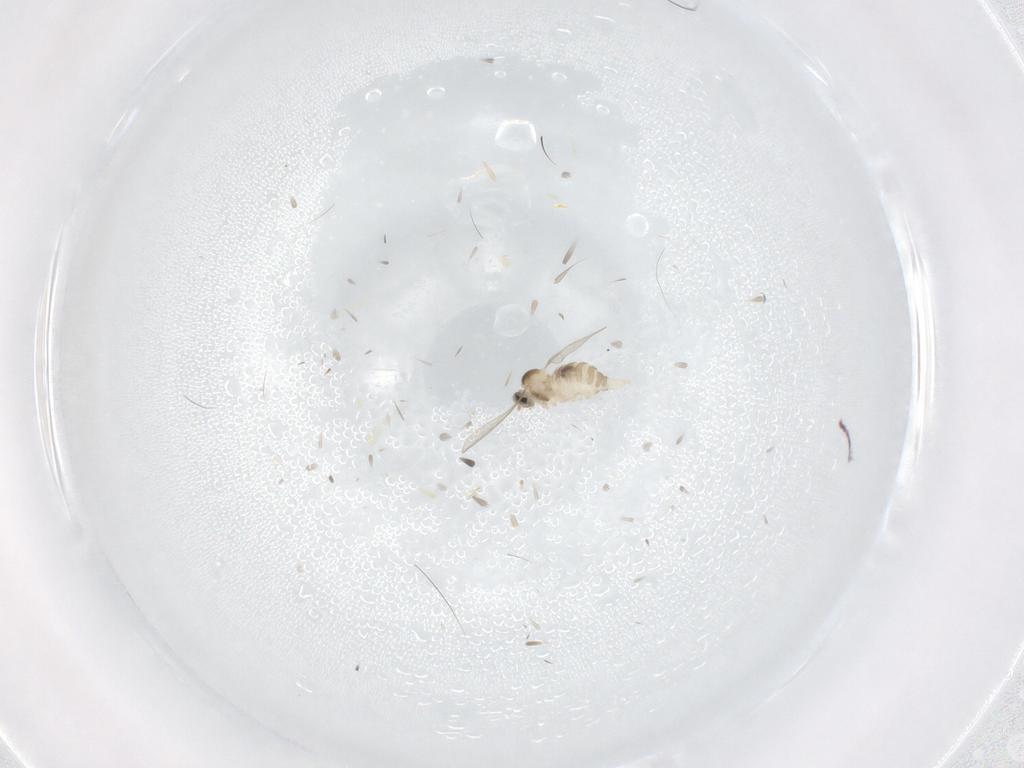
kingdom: Animalia
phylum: Arthropoda
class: Insecta
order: Diptera
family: Cecidomyiidae
